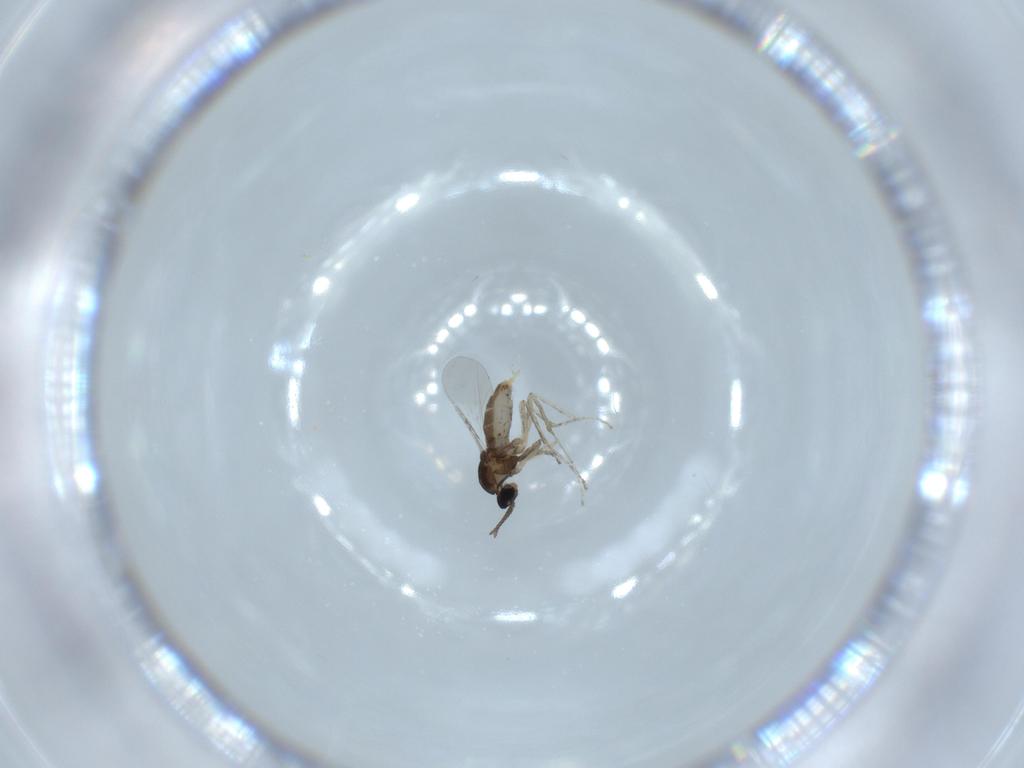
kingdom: Animalia
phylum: Arthropoda
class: Insecta
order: Diptera
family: Cecidomyiidae
